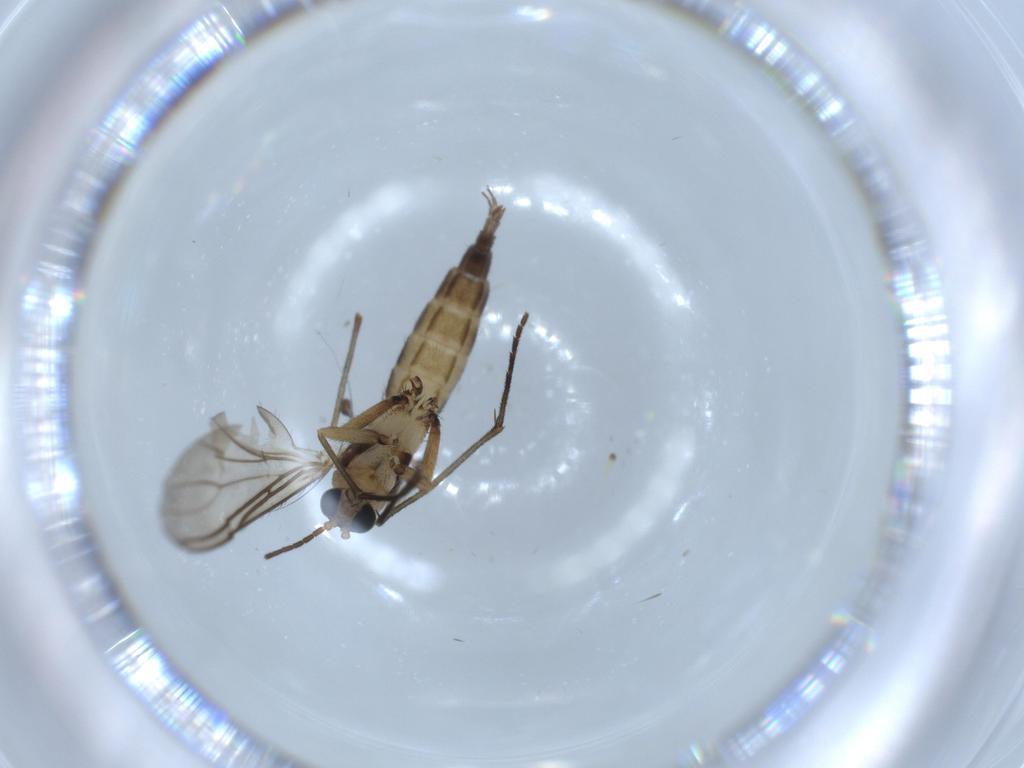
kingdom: Animalia
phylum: Arthropoda
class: Insecta
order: Diptera
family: Sciaridae
